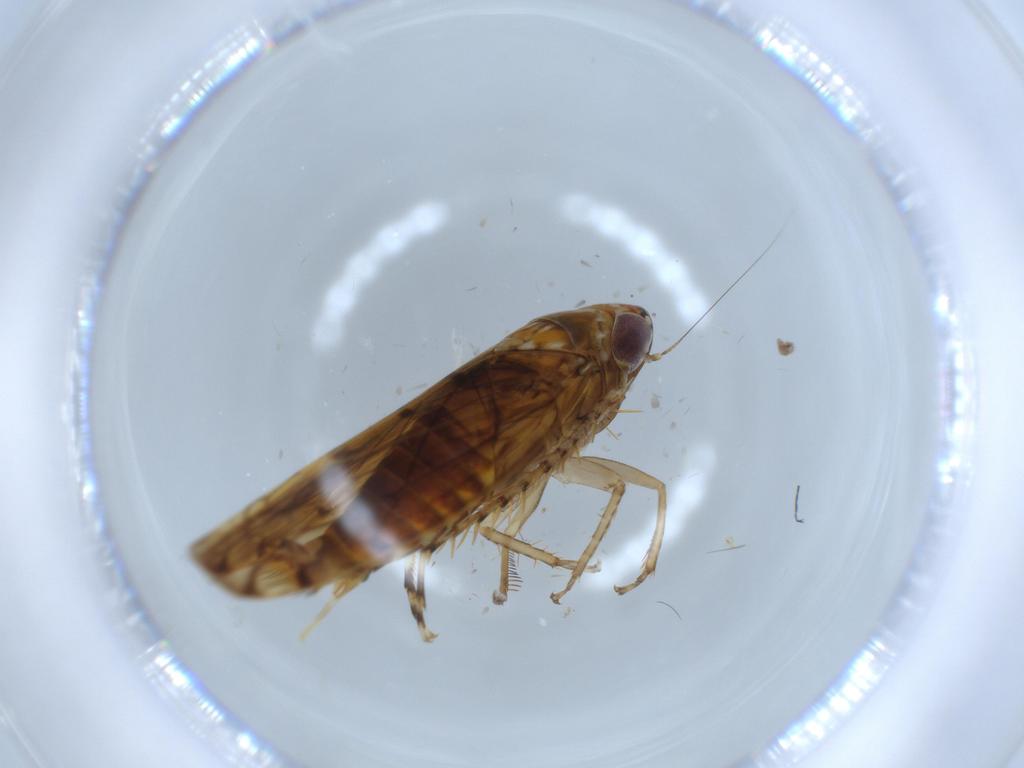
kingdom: Animalia
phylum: Arthropoda
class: Insecta
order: Hemiptera
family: Cicadellidae
